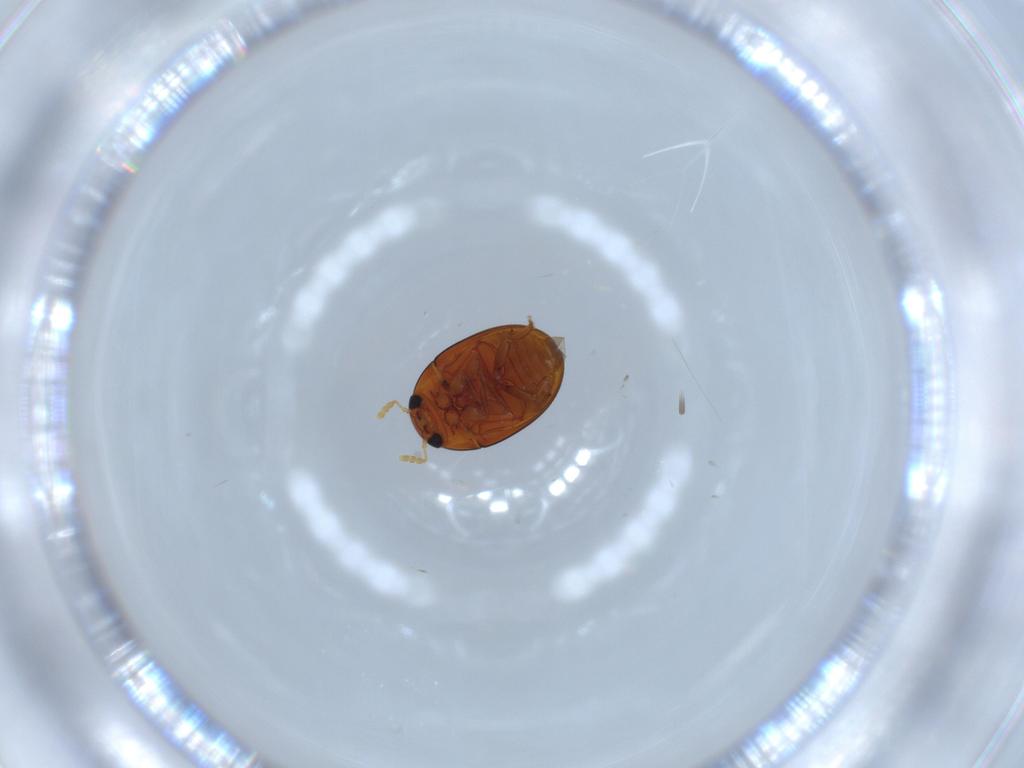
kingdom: Animalia
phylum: Arthropoda
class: Insecta
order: Coleoptera
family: Phalacridae
